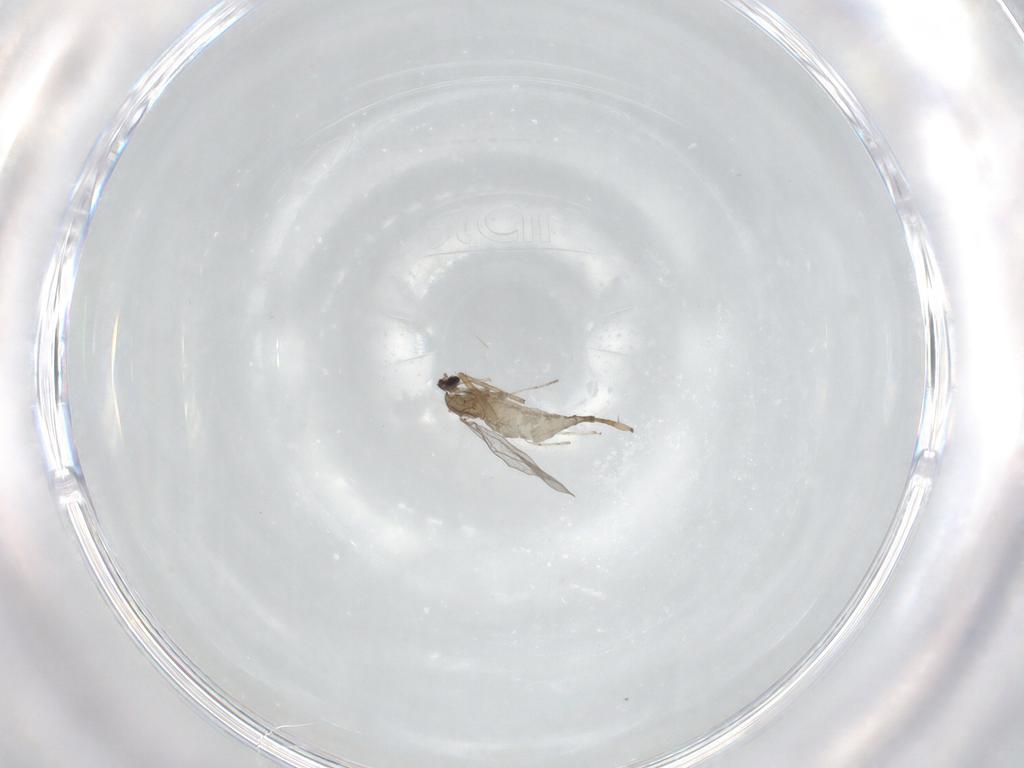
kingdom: Animalia
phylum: Arthropoda
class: Insecta
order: Diptera
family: Cecidomyiidae
